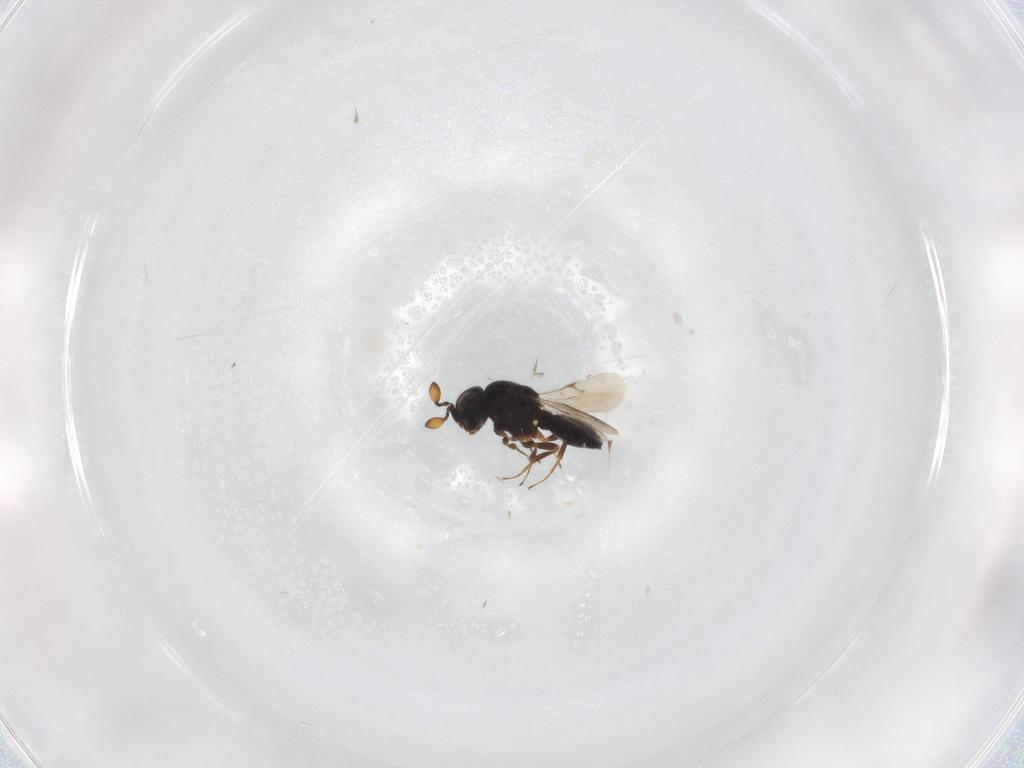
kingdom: Animalia
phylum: Arthropoda
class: Insecta
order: Hymenoptera
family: Scelionidae
